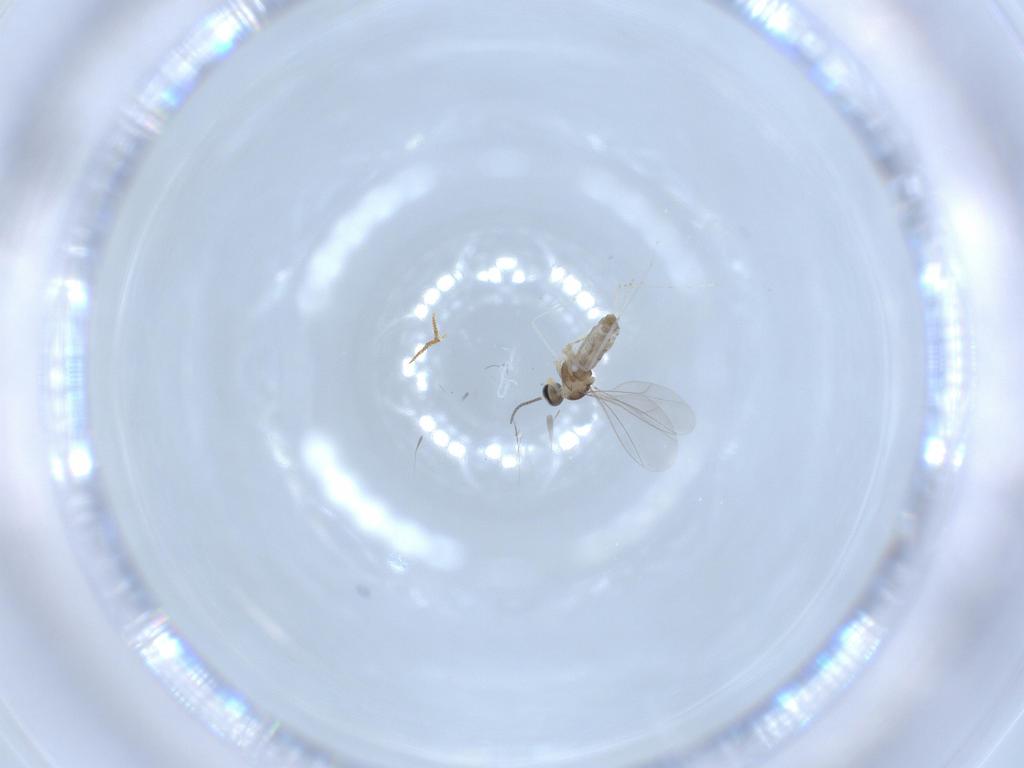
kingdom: Animalia
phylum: Arthropoda
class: Insecta
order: Diptera
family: Cecidomyiidae
